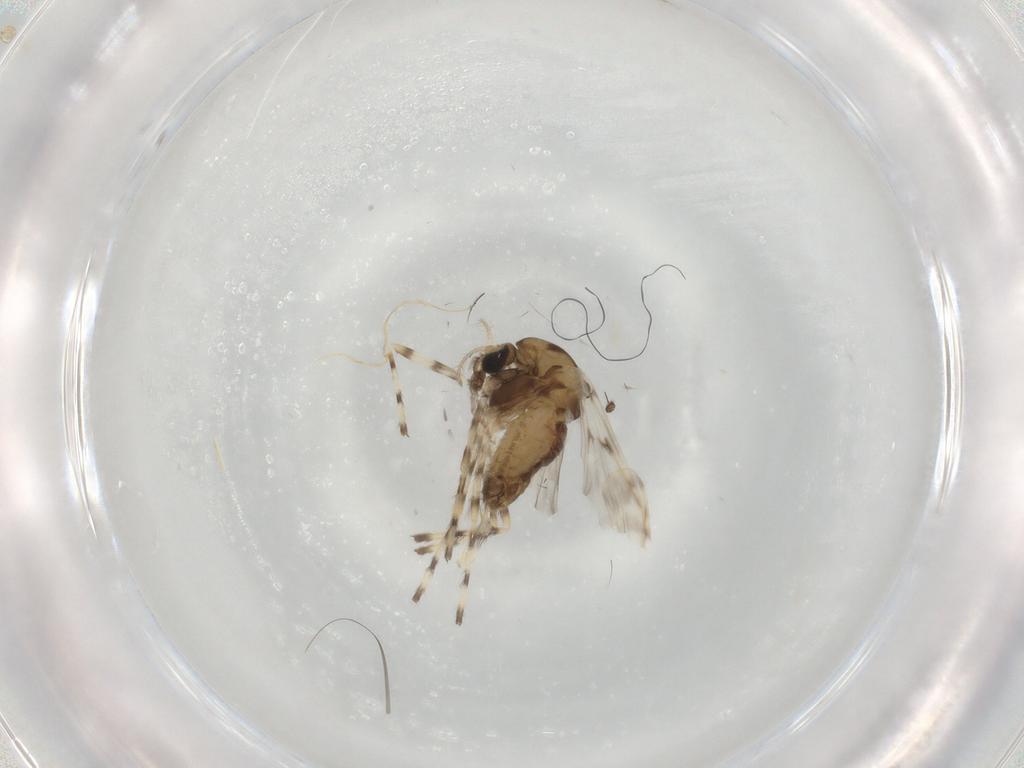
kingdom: Animalia
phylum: Arthropoda
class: Insecta
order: Diptera
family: Chironomidae
